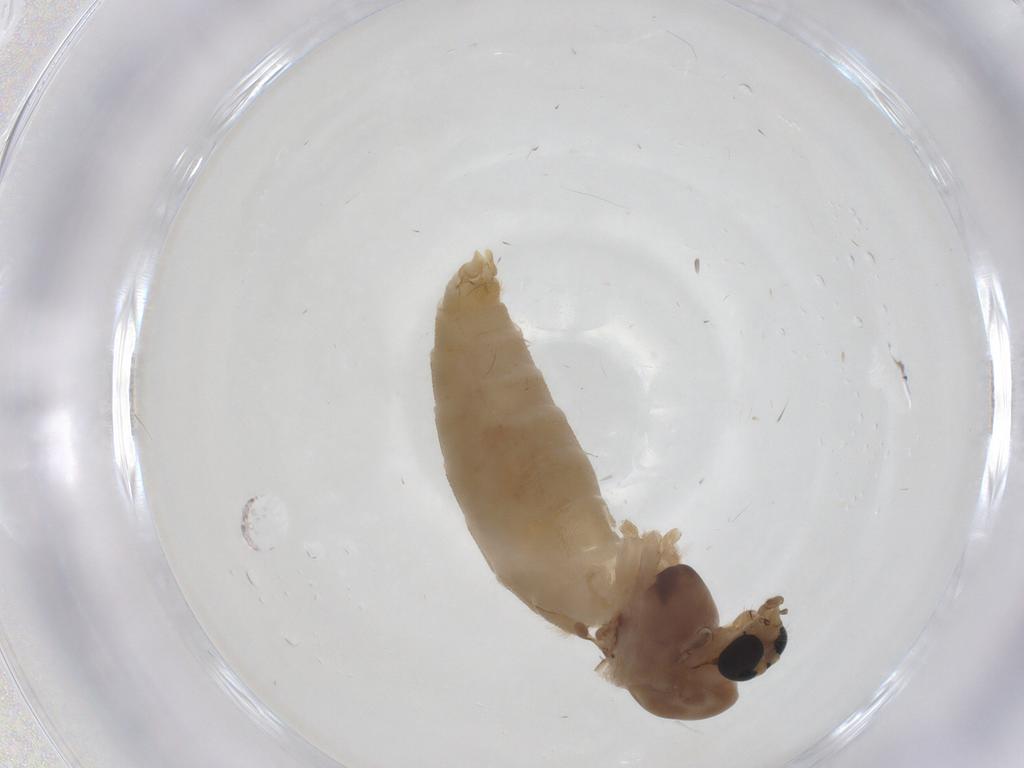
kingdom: Animalia
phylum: Arthropoda
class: Insecta
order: Diptera
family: Chironomidae
